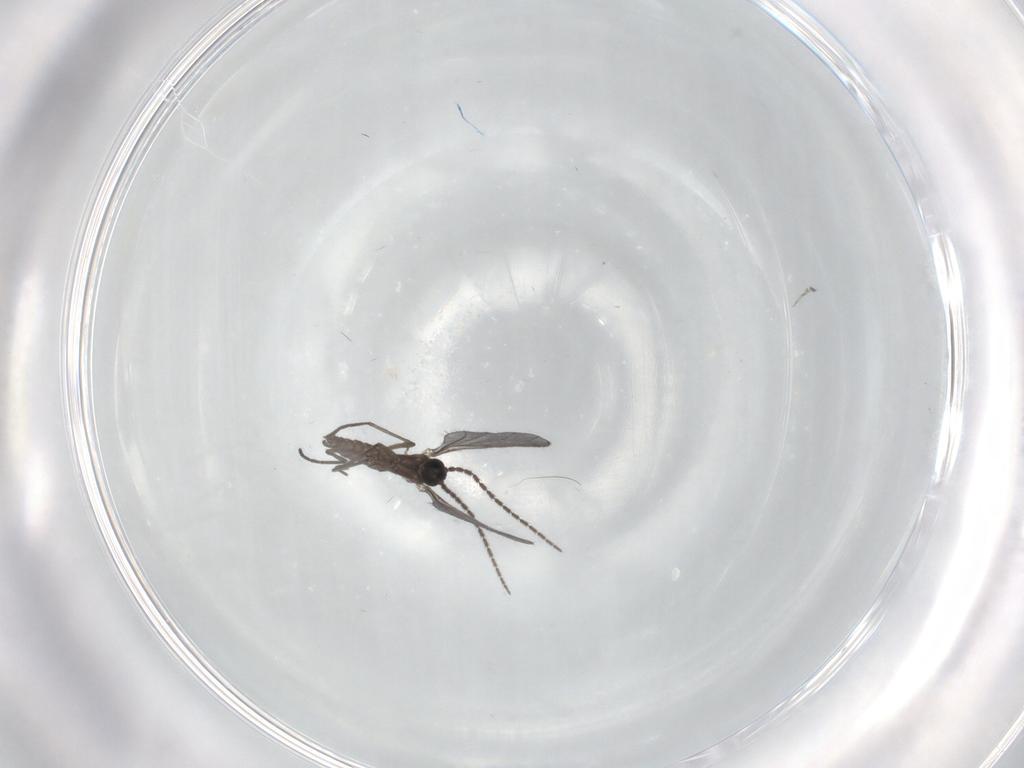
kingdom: Animalia
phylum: Arthropoda
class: Insecta
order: Diptera
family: Sciaridae
